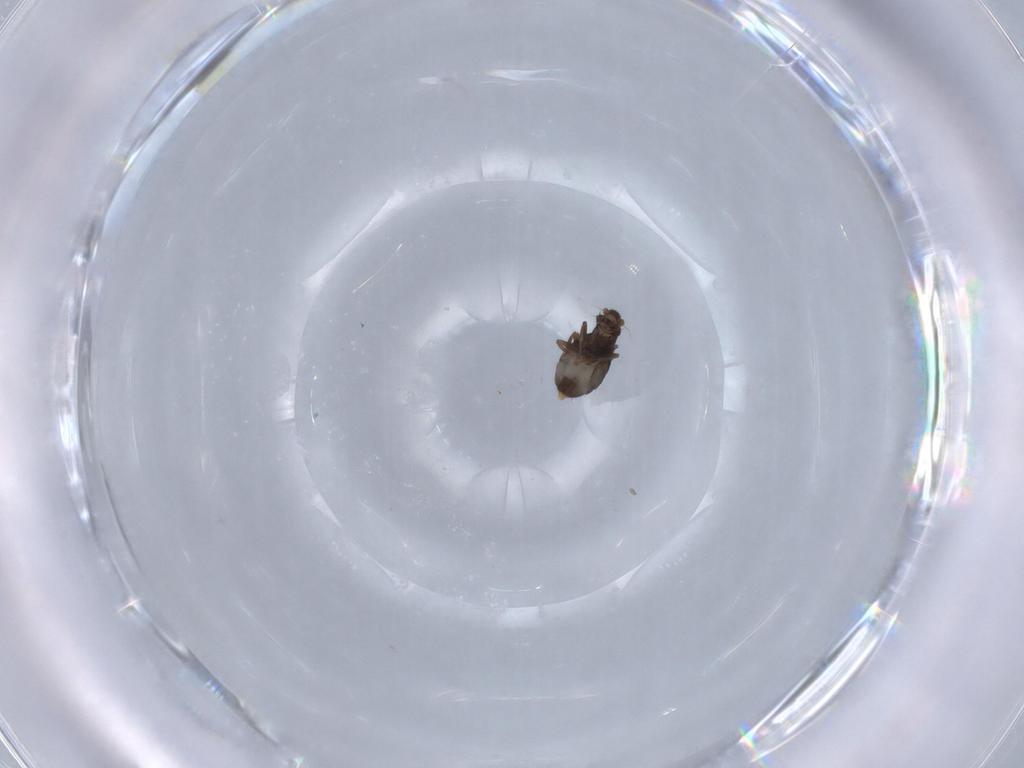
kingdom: Animalia
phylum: Arthropoda
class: Insecta
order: Diptera
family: Phoridae
